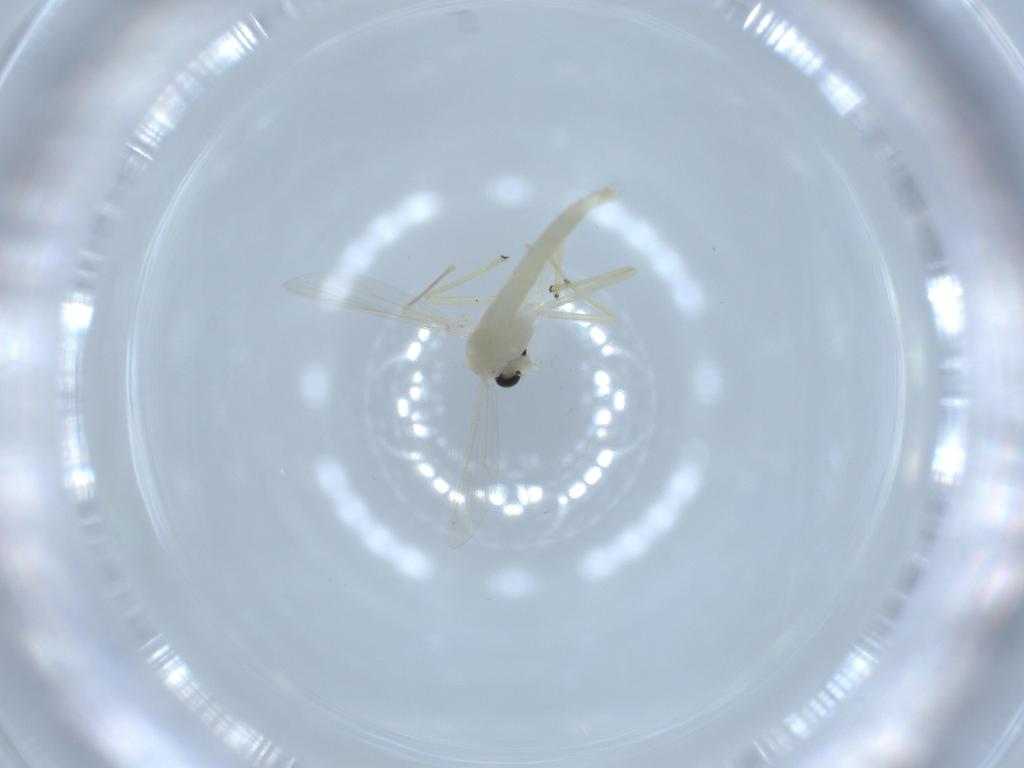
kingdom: Animalia
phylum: Arthropoda
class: Insecta
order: Diptera
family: Chironomidae
